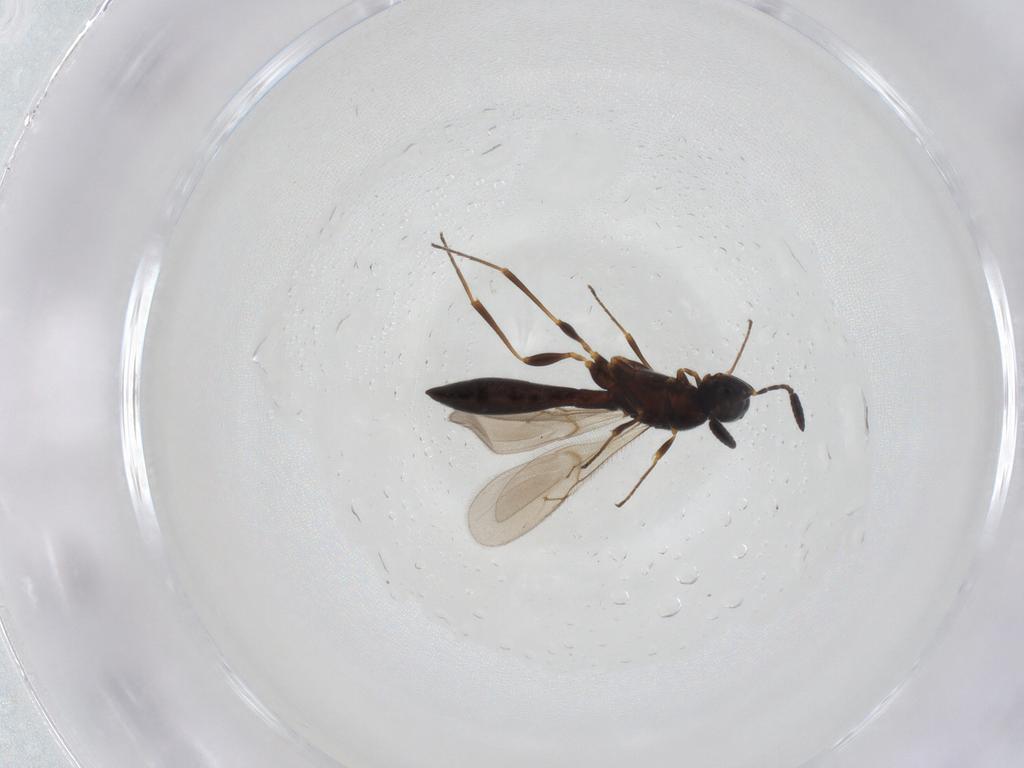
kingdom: Animalia
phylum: Arthropoda
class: Insecta
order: Hymenoptera
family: Scelionidae
